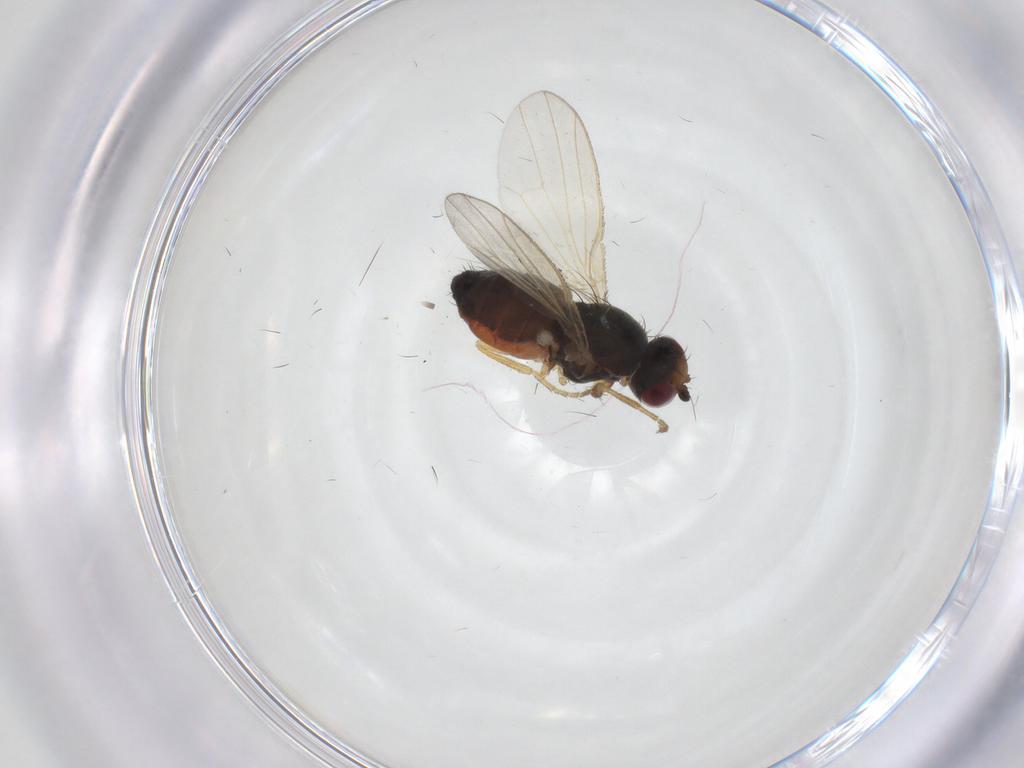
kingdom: Animalia
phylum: Arthropoda
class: Insecta
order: Diptera
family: Heleomyzidae
